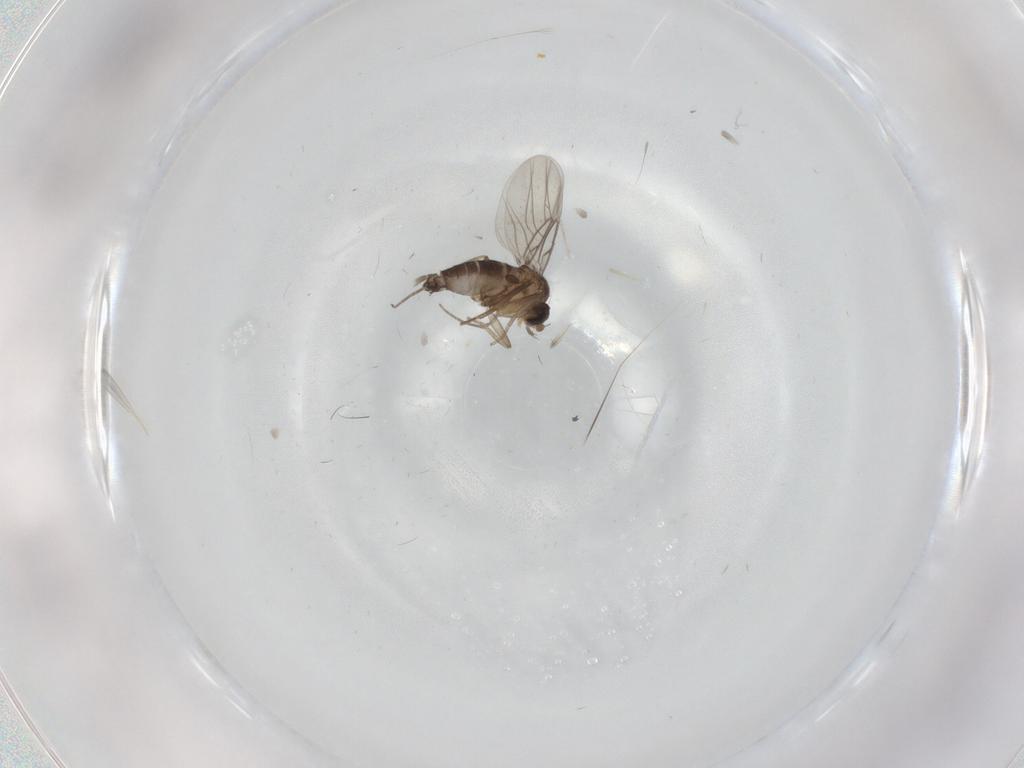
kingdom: Animalia
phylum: Arthropoda
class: Insecta
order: Diptera
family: Phoridae
